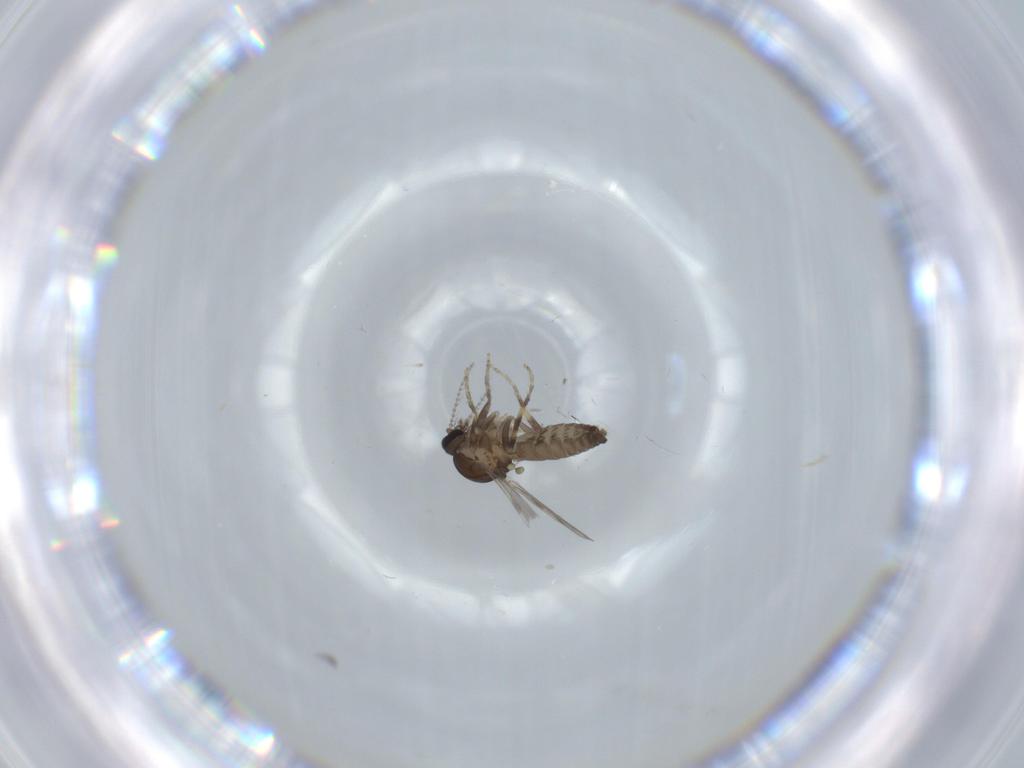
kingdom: Animalia
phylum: Arthropoda
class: Insecta
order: Diptera
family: Ceratopogonidae
